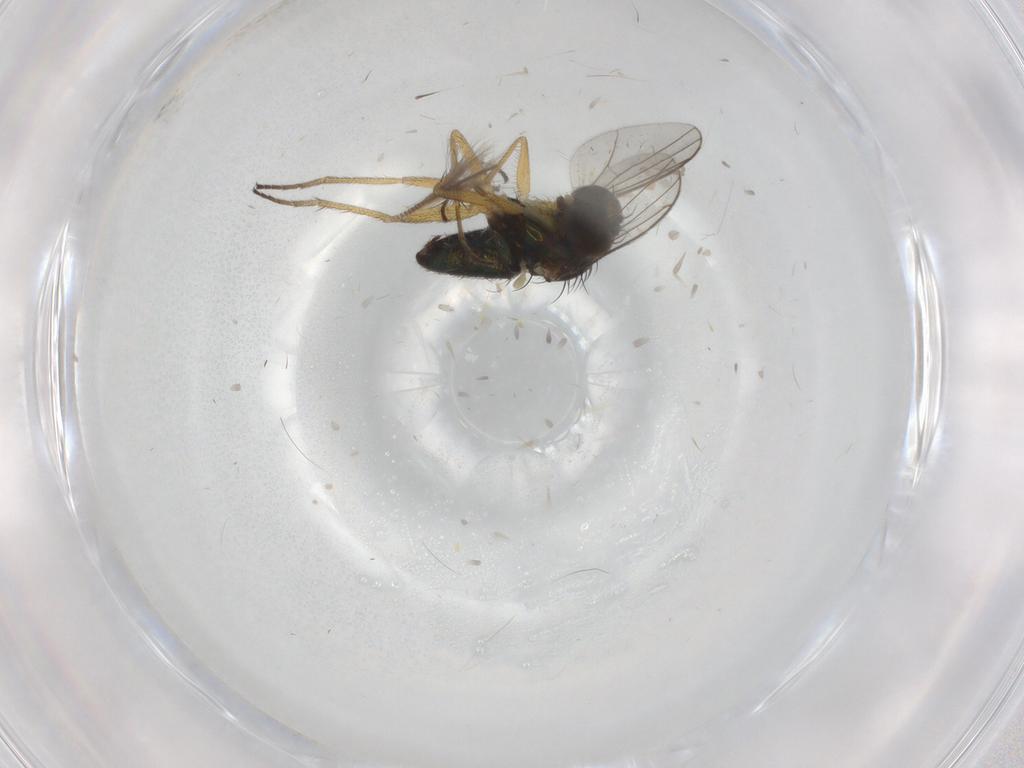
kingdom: Animalia
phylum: Arthropoda
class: Insecta
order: Diptera
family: Chironomidae
